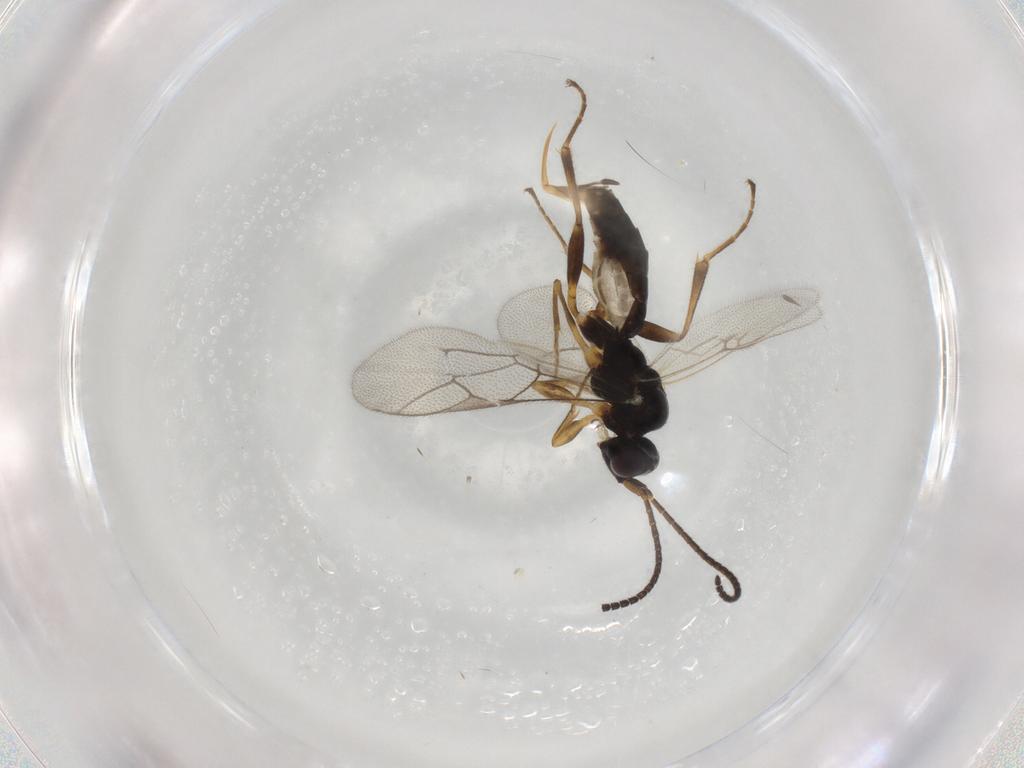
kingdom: Animalia
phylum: Arthropoda
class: Insecta
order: Hymenoptera
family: Ichneumonidae
